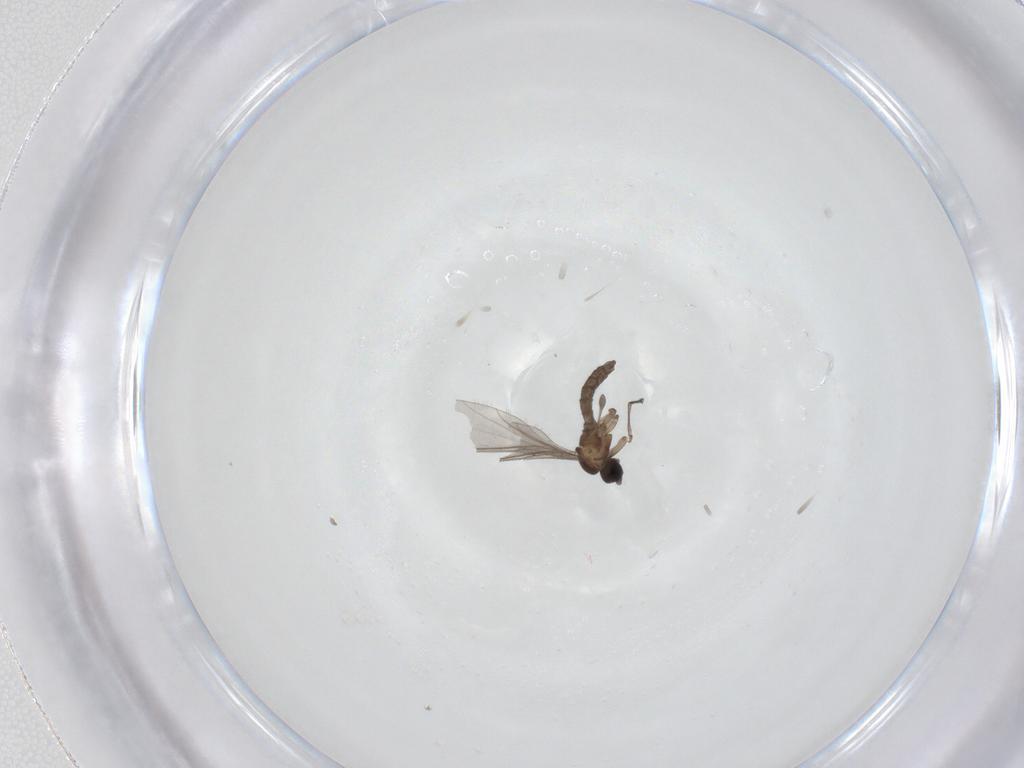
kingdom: Animalia
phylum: Arthropoda
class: Insecta
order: Diptera
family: Sciaridae
